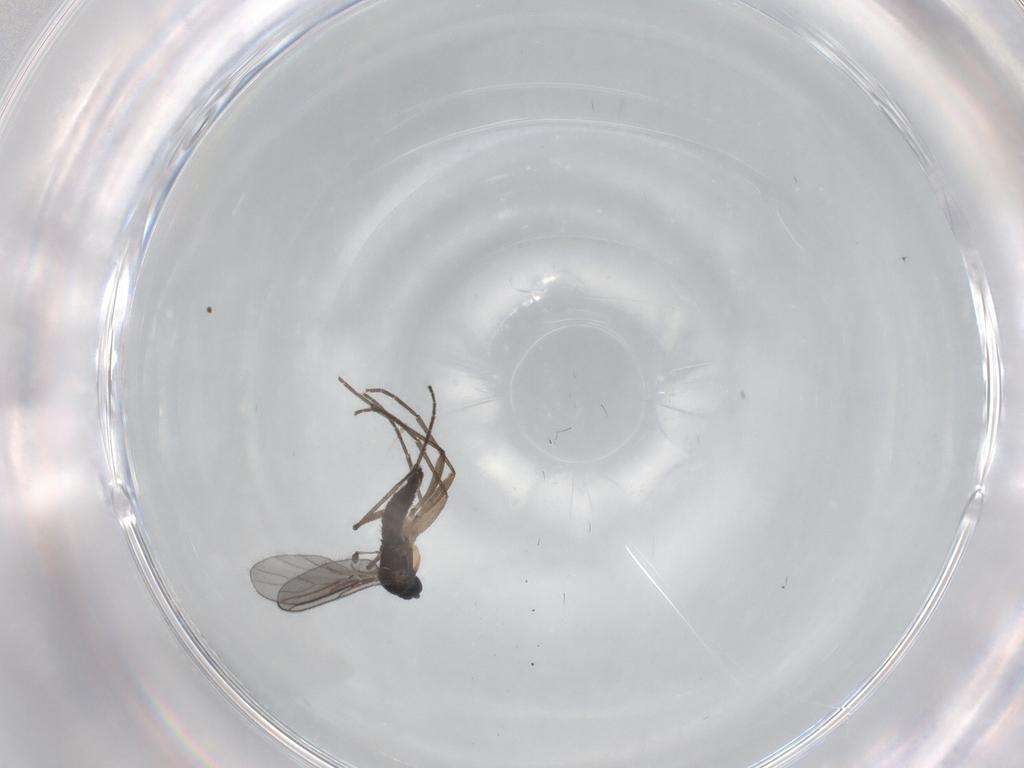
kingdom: Animalia
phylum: Arthropoda
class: Insecta
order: Diptera
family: Sciaridae
